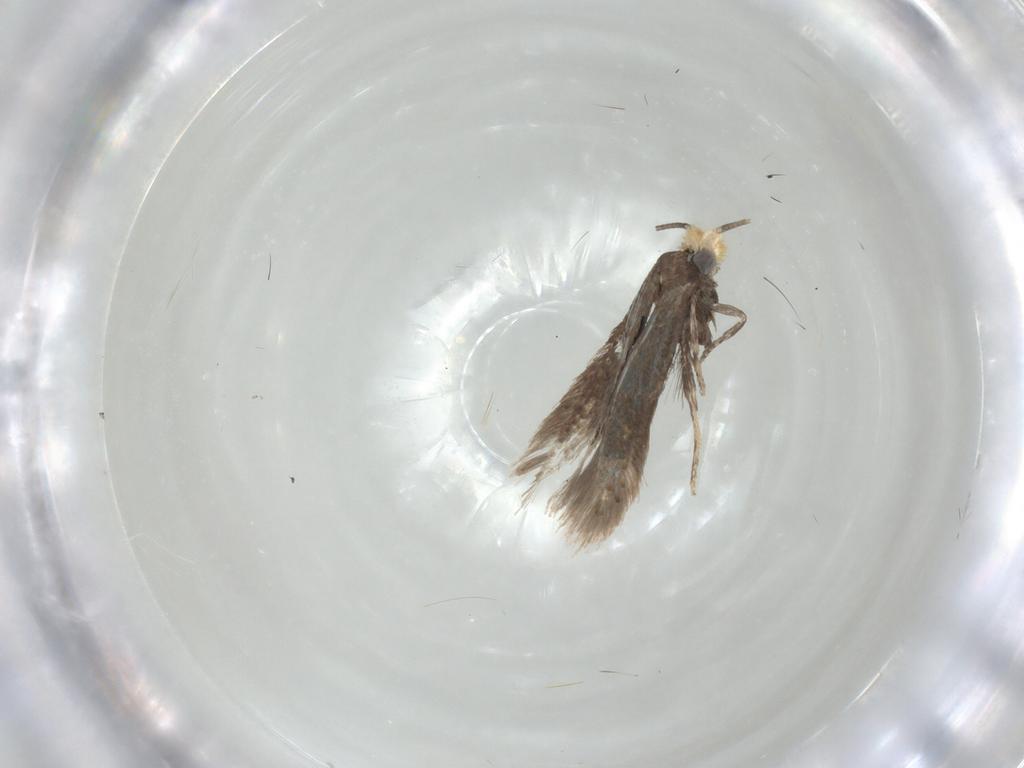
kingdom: Animalia
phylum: Arthropoda
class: Insecta
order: Lepidoptera
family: Nepticulidae
